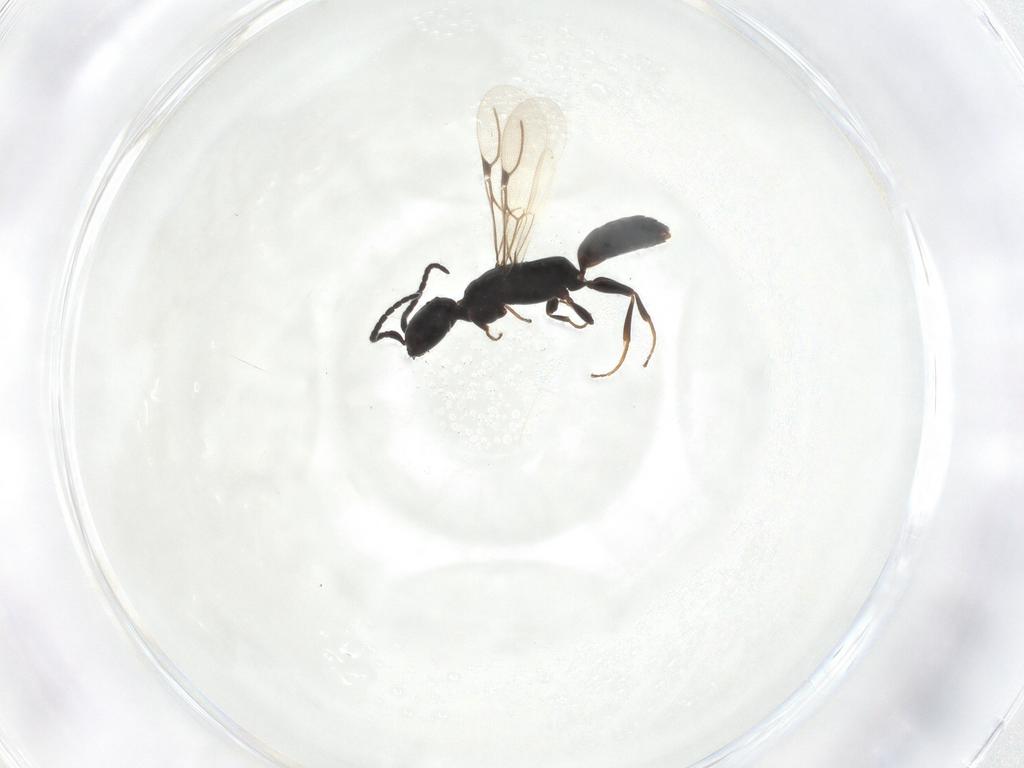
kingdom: Animalia
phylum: Arthropoda
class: Insecta
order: Hymenoptera
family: Bethylidae
